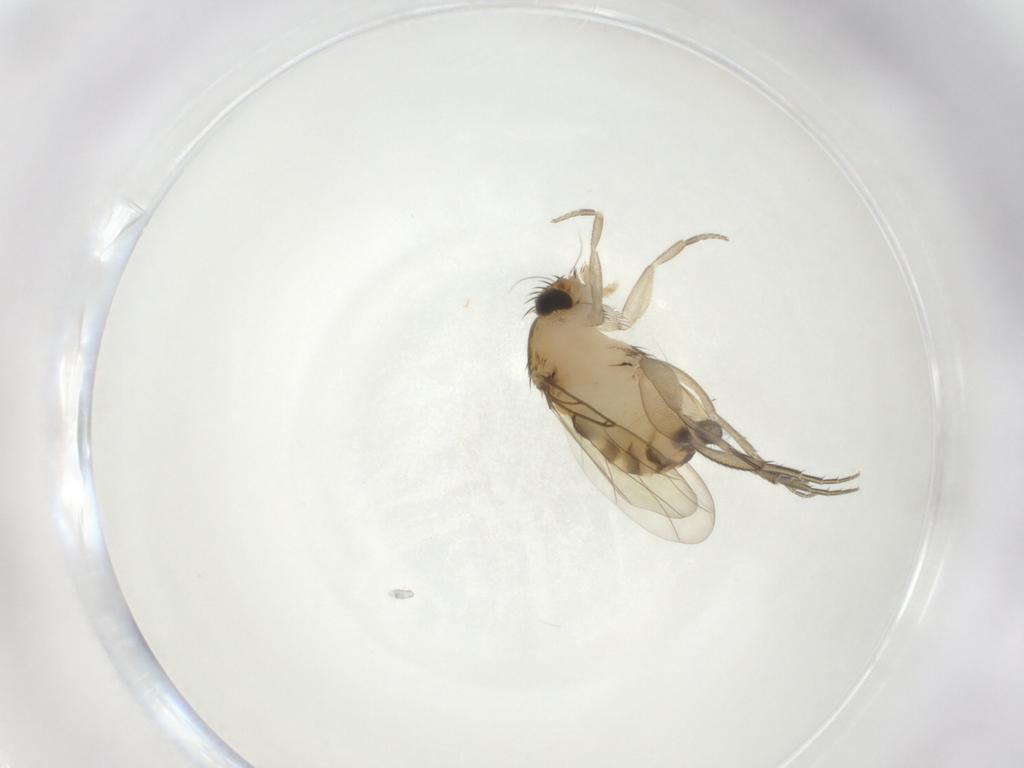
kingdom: Animalia
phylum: Arthropoda
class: Insecta
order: Diptera
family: Phoridae
